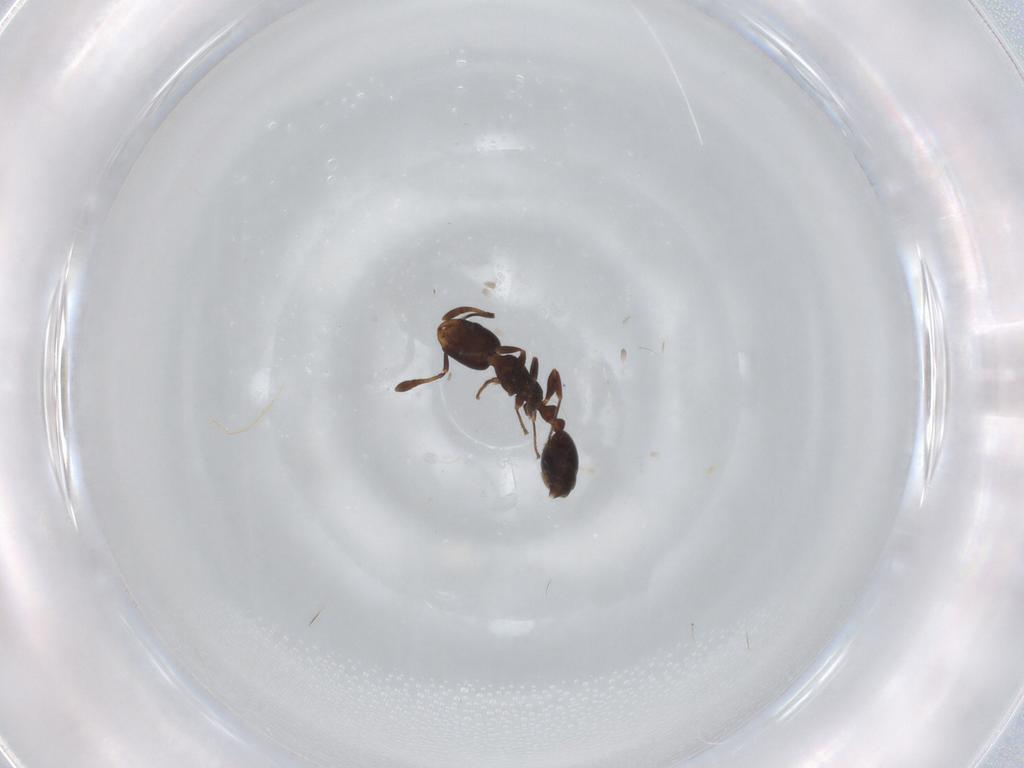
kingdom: Animalia
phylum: Arthropoda
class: Insecta
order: Hymenoptera
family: Formicidae
